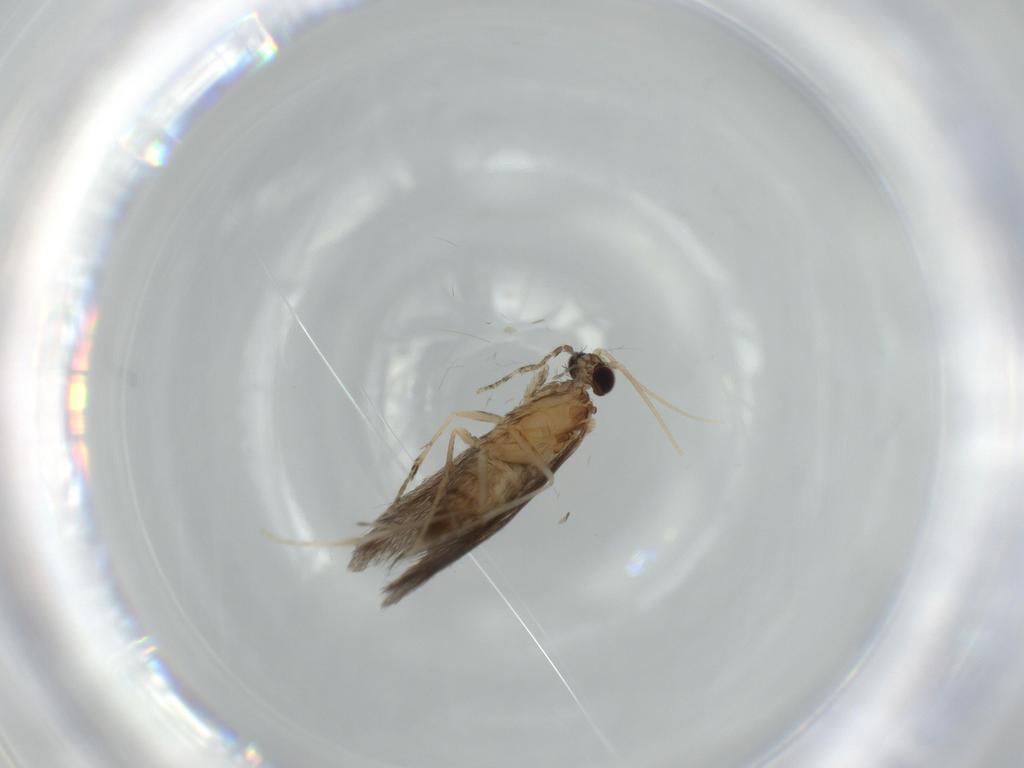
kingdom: Animalia
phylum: Arthropoda
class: Insecta
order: Trichoptera
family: Hydroptilidae
